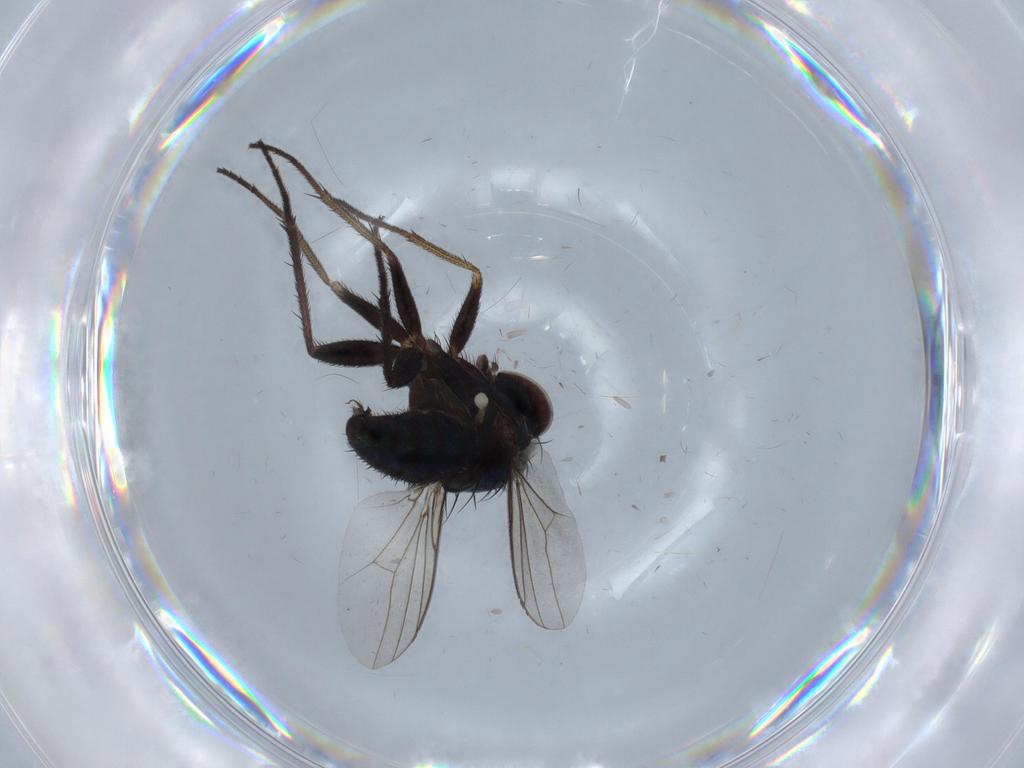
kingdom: Animalia
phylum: Arthropoda
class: Insecta
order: Diptera
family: Dolichopodidae
